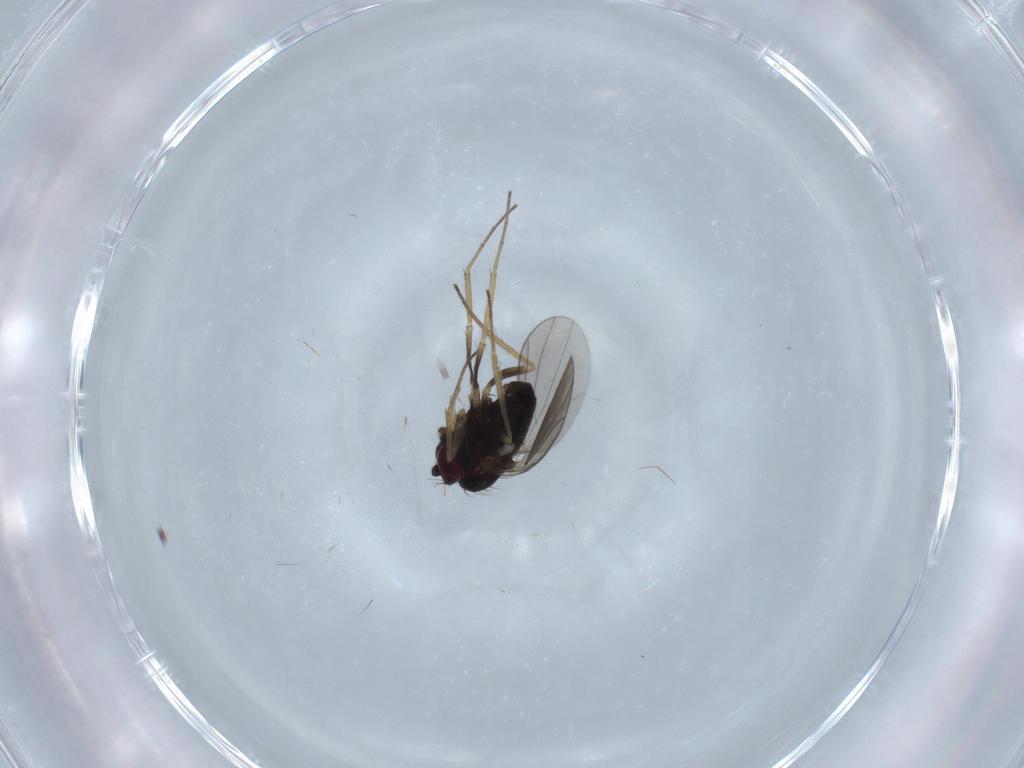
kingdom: Animalia
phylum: Arthropoda
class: Insecta
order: Diptera
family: Dolichopodidae
